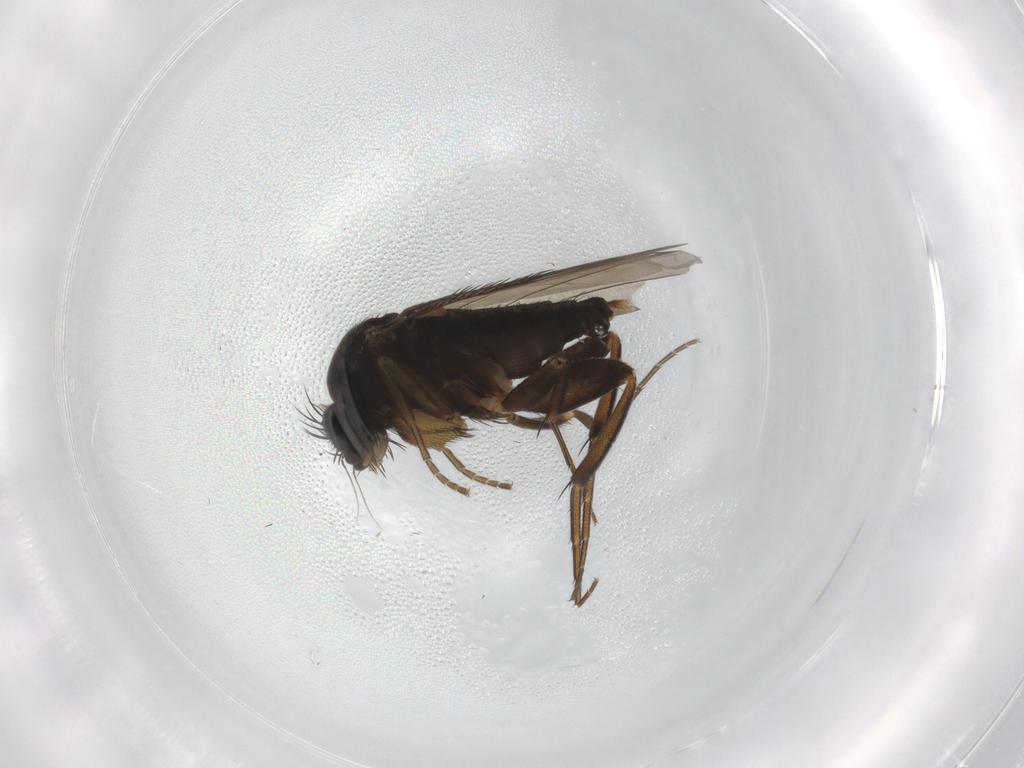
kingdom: Animalia
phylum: Arthropoda
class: Insecta
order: Diptera
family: Phoridae
